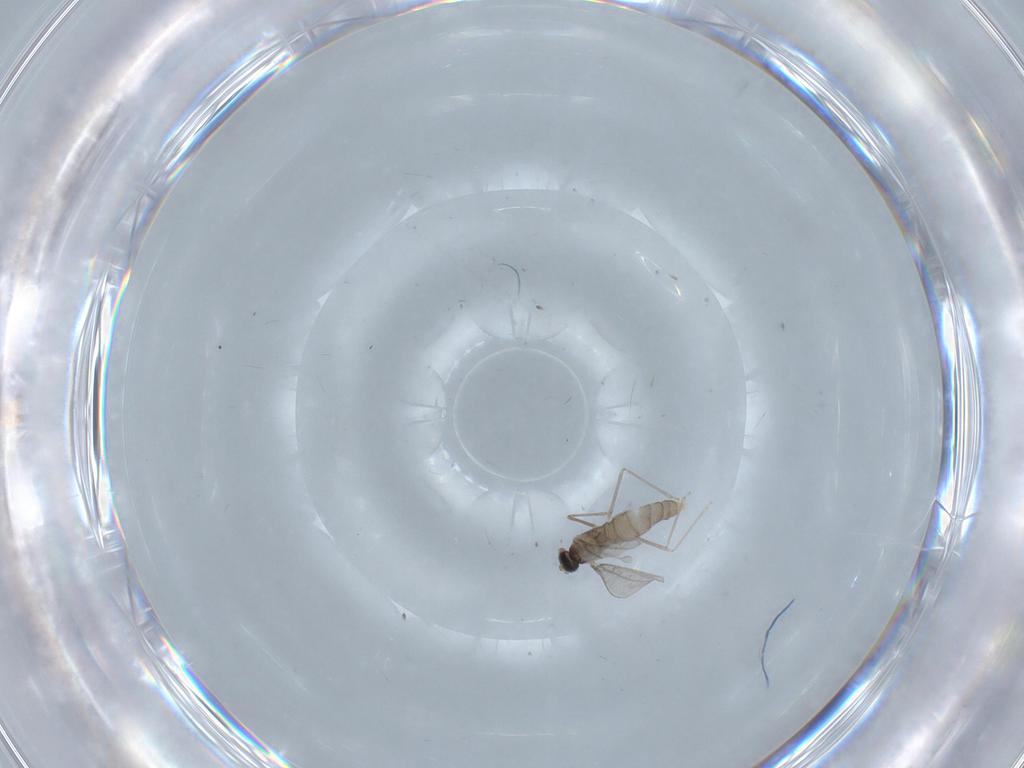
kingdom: Animalia
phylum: Arthropoda
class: Insecta
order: Diptera
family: Cecidomyiidae
